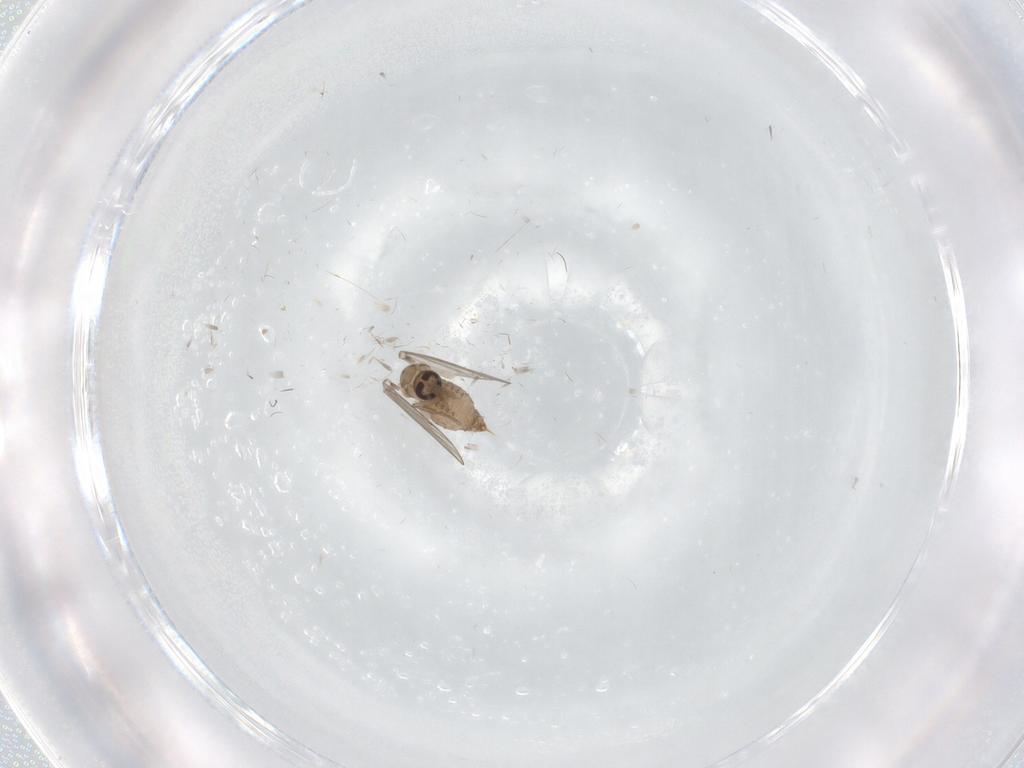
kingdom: Animalia
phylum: Arthropoda
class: Insecta
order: Diptera
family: Psychodidae
